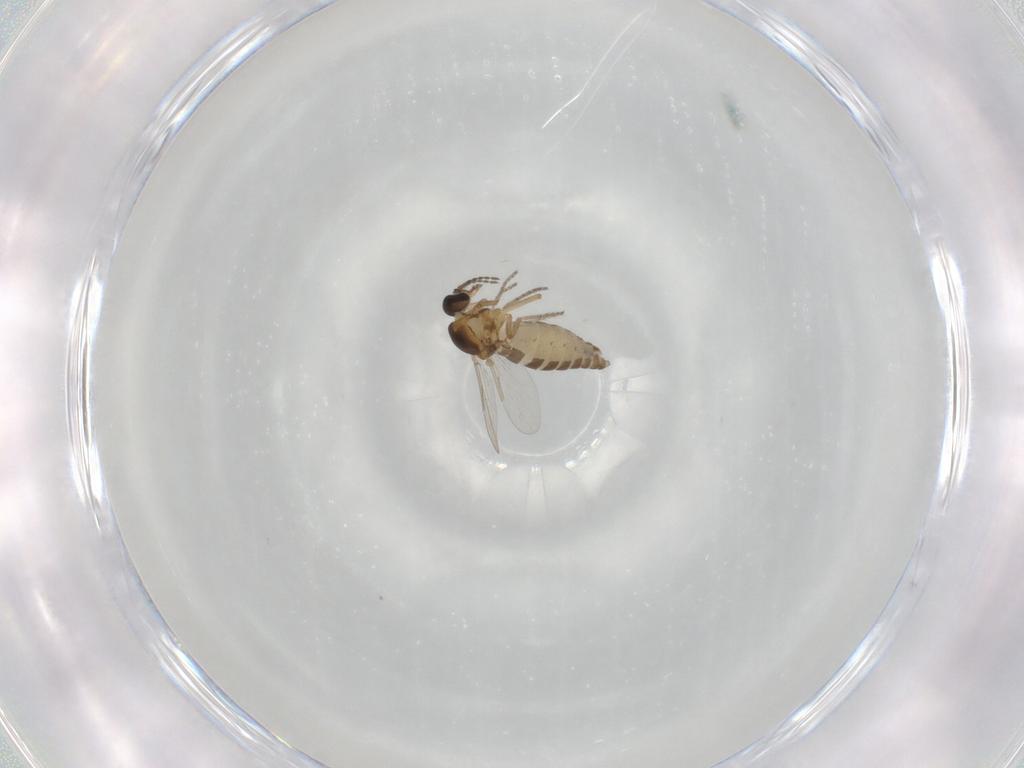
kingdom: Animalia
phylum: Arthropoda
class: Insecta
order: Diptera
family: Ceratopogonidae
